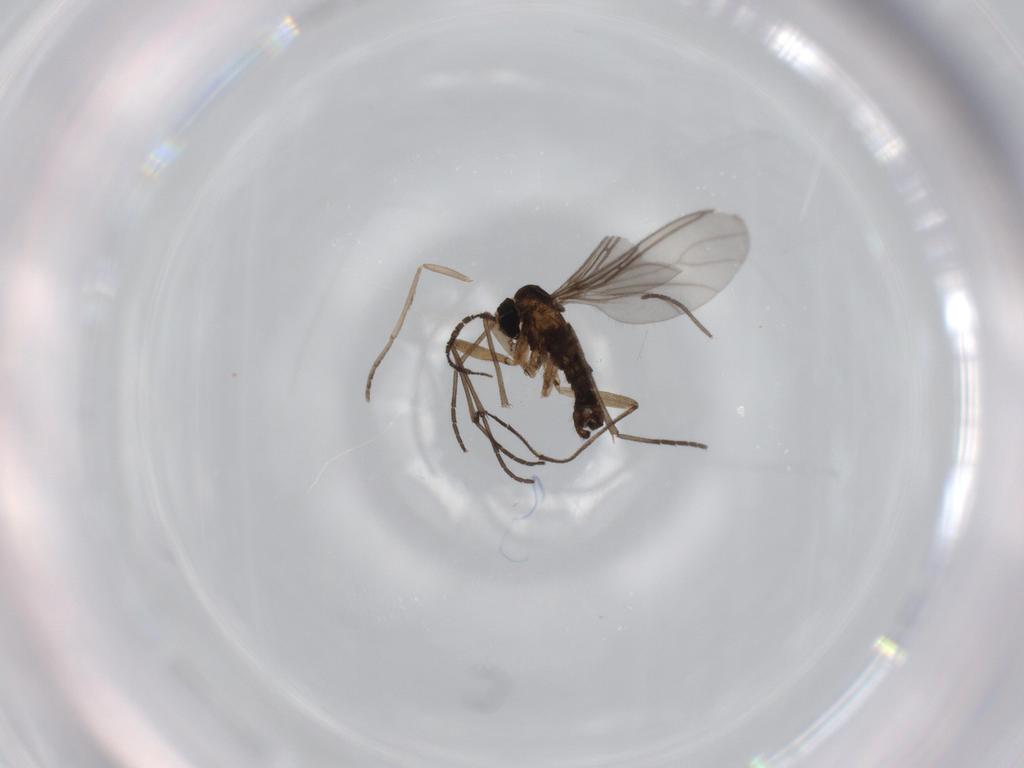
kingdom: Animalia
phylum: Arthropoda
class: Insecta
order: Diptera
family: Sciaridae
